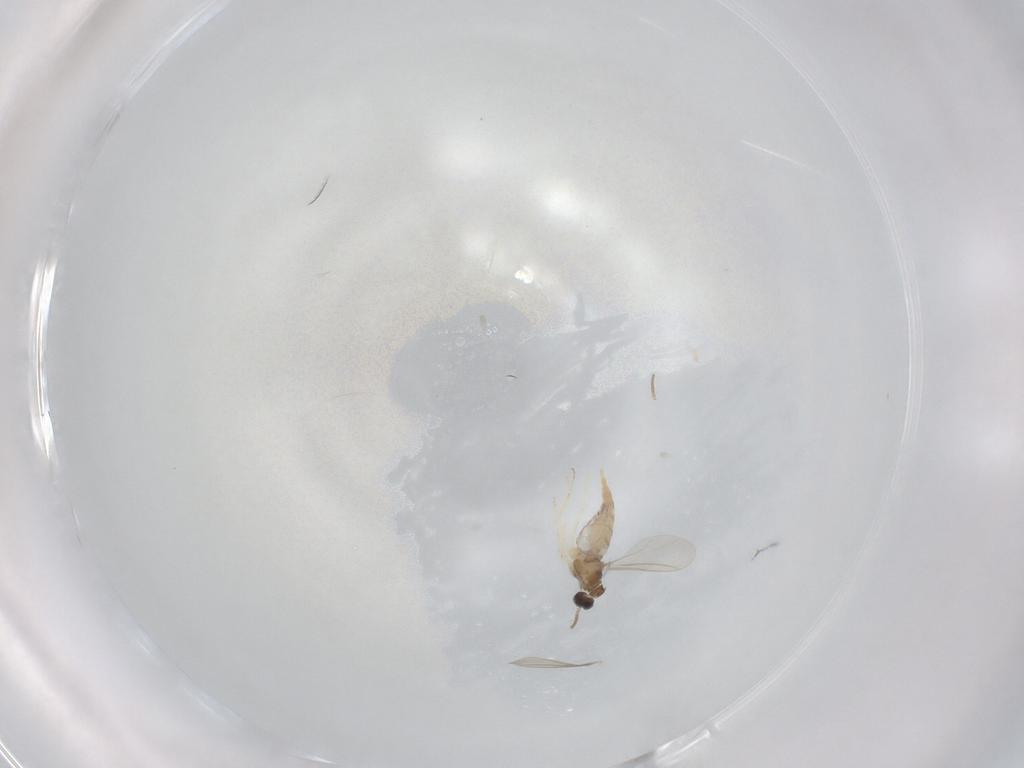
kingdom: Animalia
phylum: Arthropoda
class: Insecta
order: Diptera
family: Cecidomyiidae
